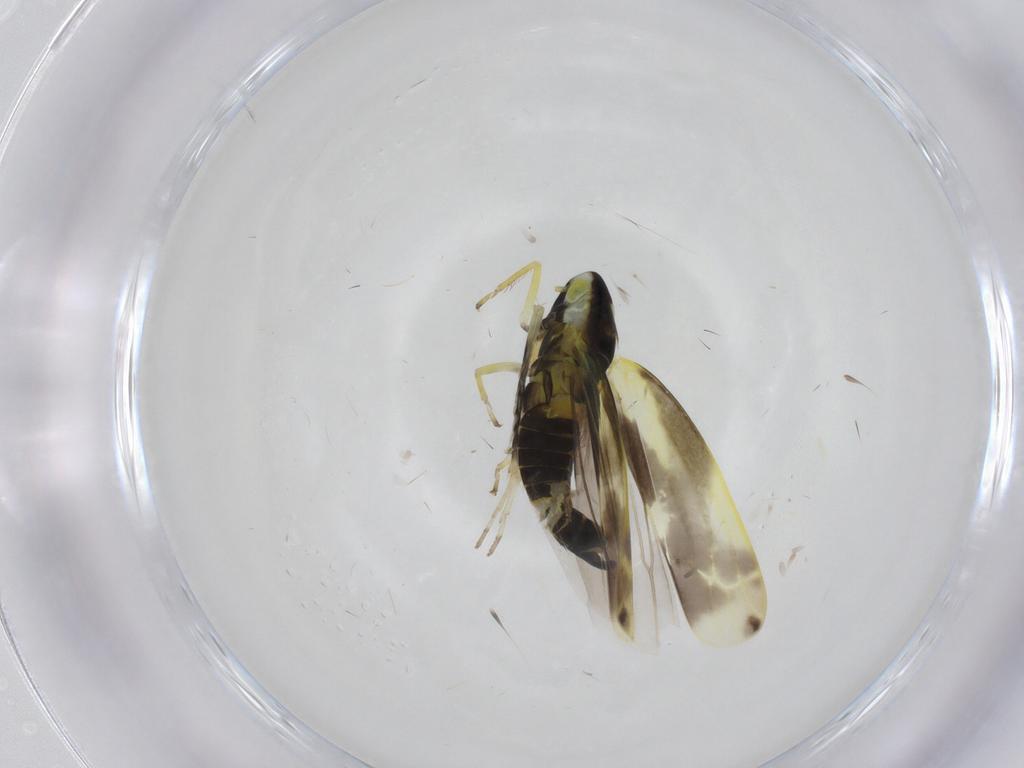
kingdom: Animalia
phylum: Arthropoda
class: Insecta
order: Hemiptera
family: Cicadellidae
